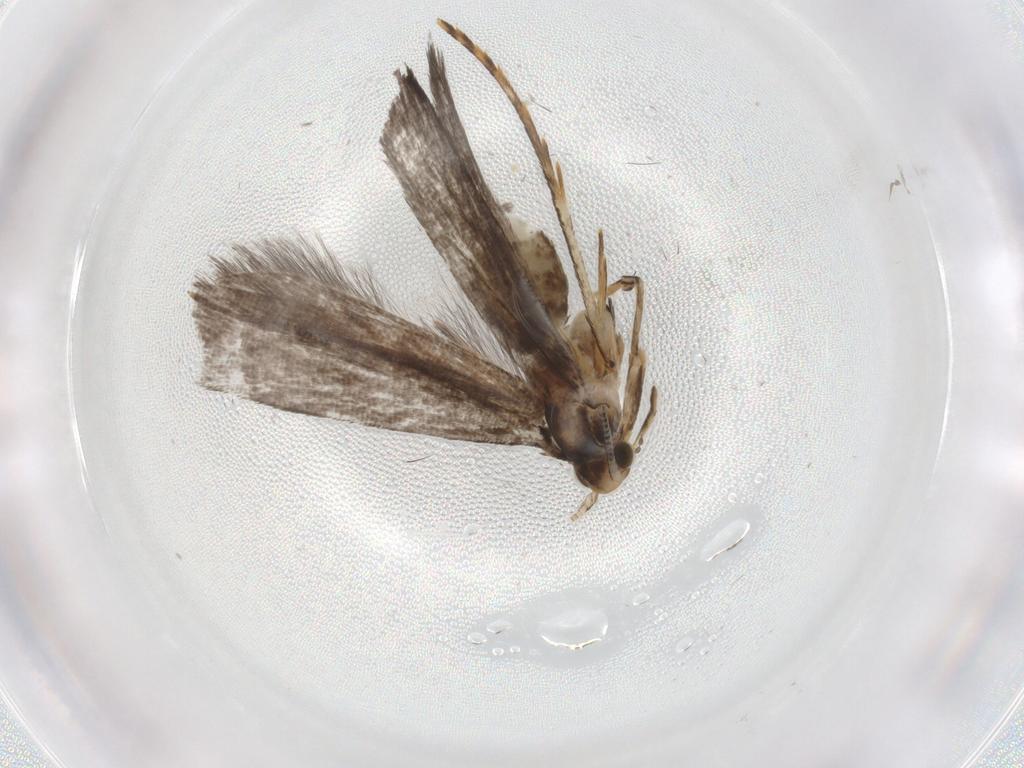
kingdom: Animalia
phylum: Arthropoda
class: Insecta
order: Lepidoptera
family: Tineidae
